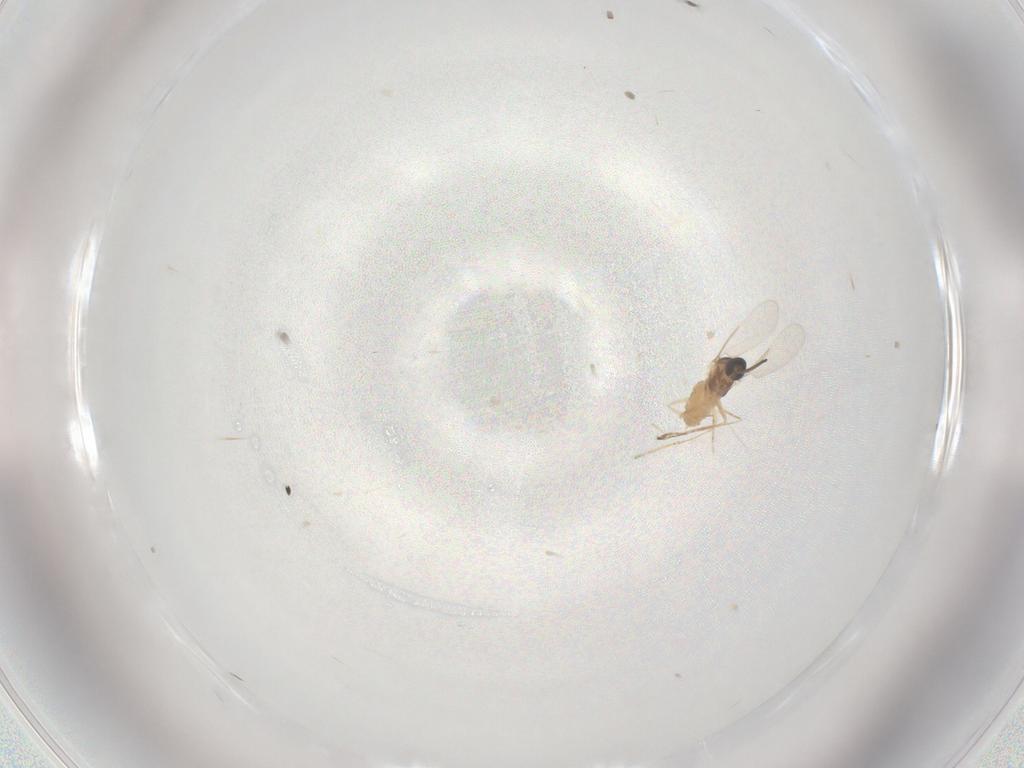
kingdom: Animalia
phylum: Arthropoda
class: Insecta
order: Diptera
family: Cecidomyiidae
